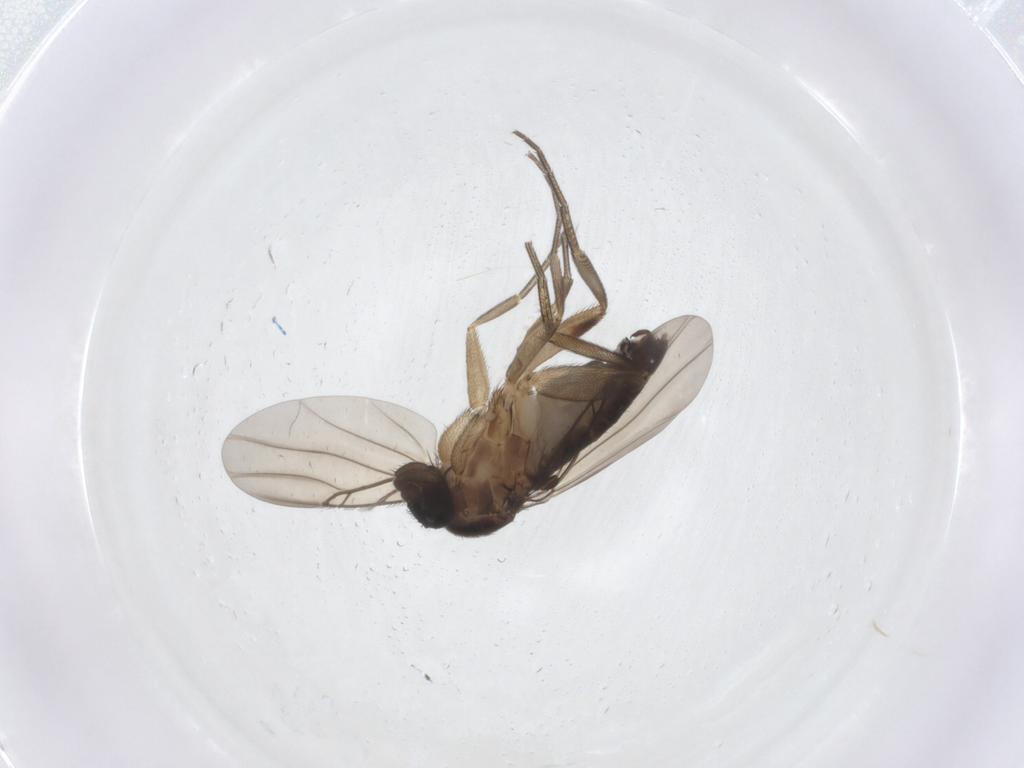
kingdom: Animalia
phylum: Arthropoda
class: Insecta
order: Diptera
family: Phoridae
